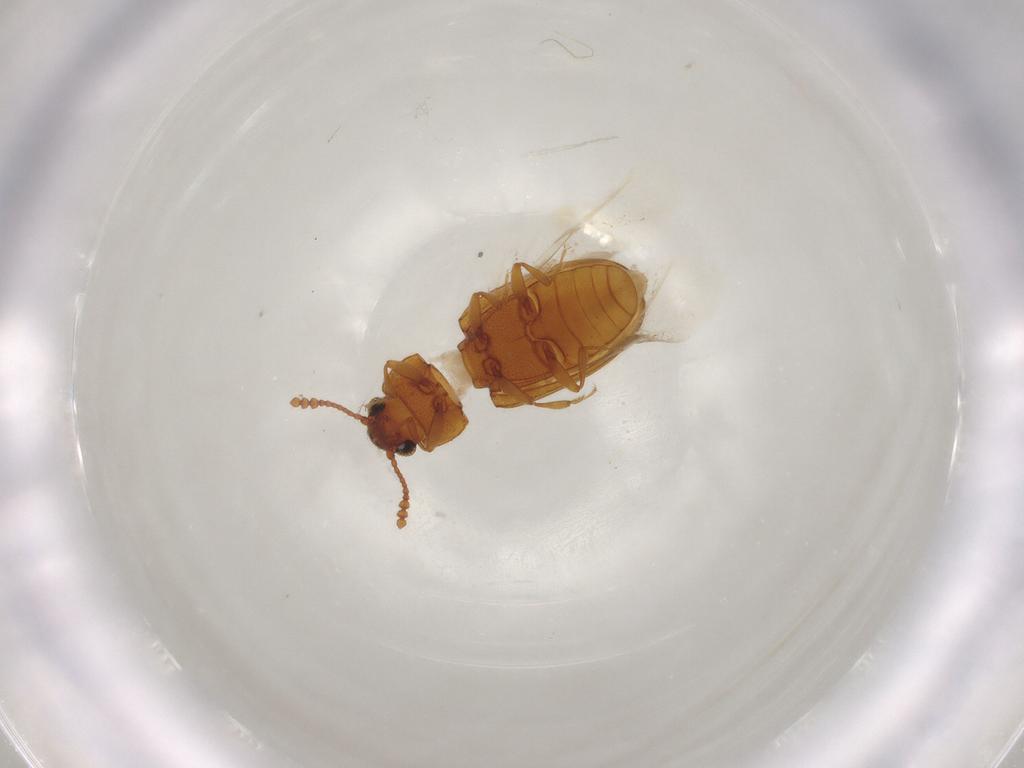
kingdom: Animalia
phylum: Arthropoda
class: Insecta
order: Coleoptera
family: Erotylidae
